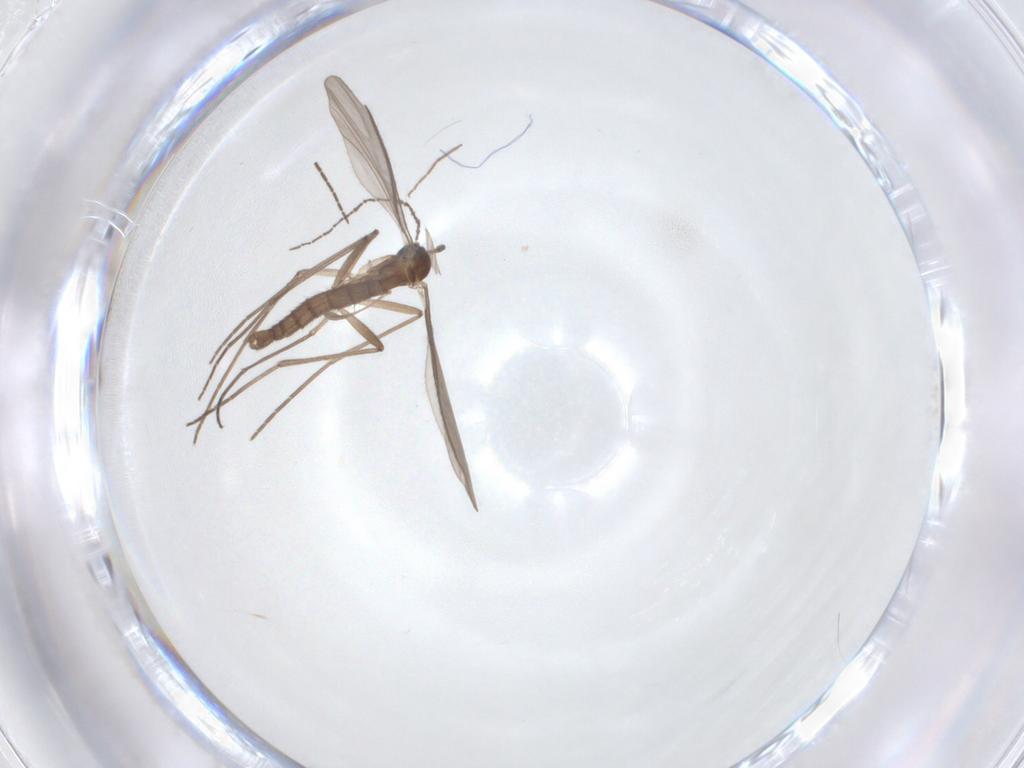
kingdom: Animalia
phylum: Arthropoda
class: Insecta
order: Diptera
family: Sciaridae
